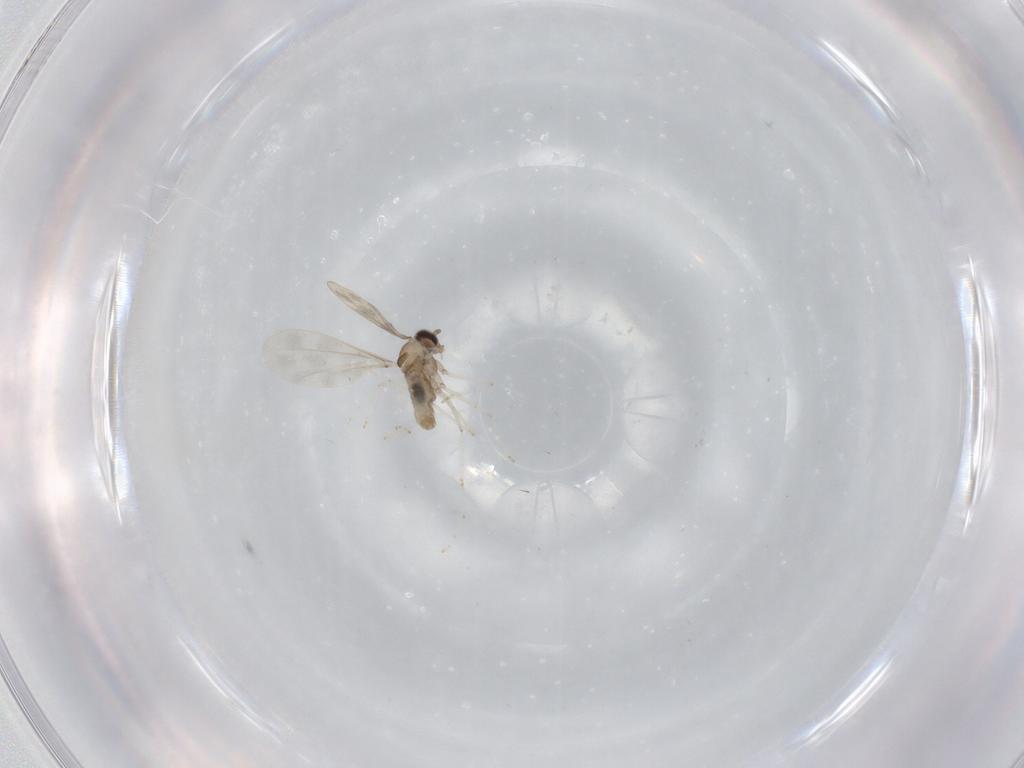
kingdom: Animalia
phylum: Arthropoda
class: Insecta
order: Diptera
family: Cecidomyiidae
